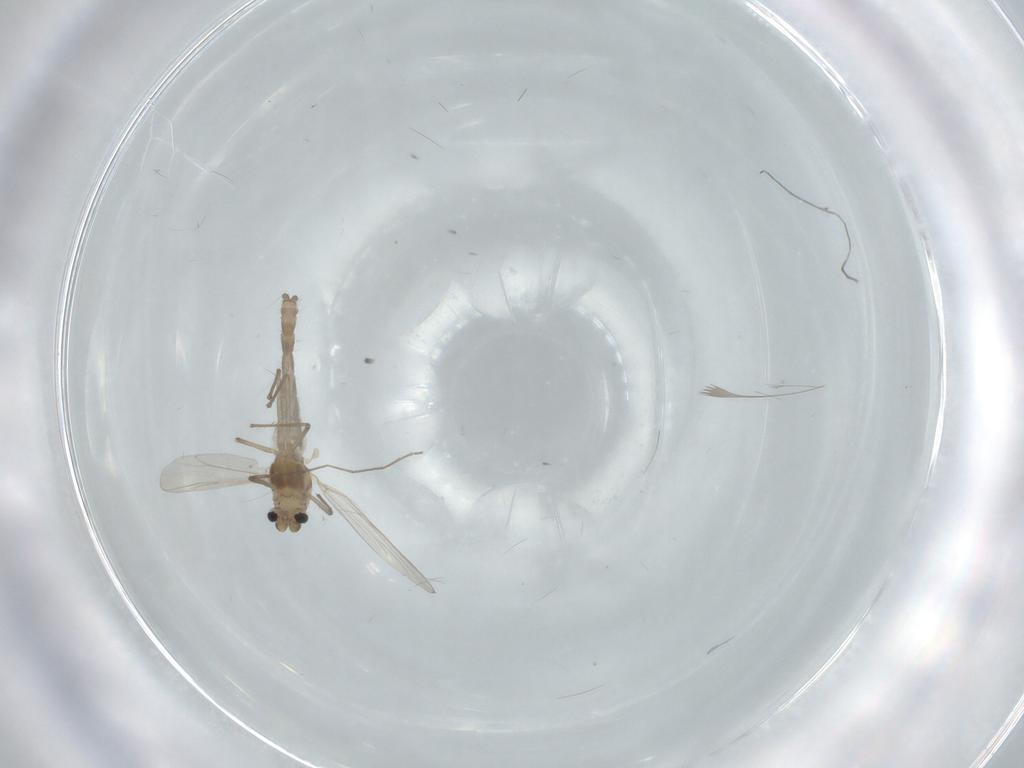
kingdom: Animalia
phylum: Arthropoda
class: Insecta
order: Diptera
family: Chironomidae
